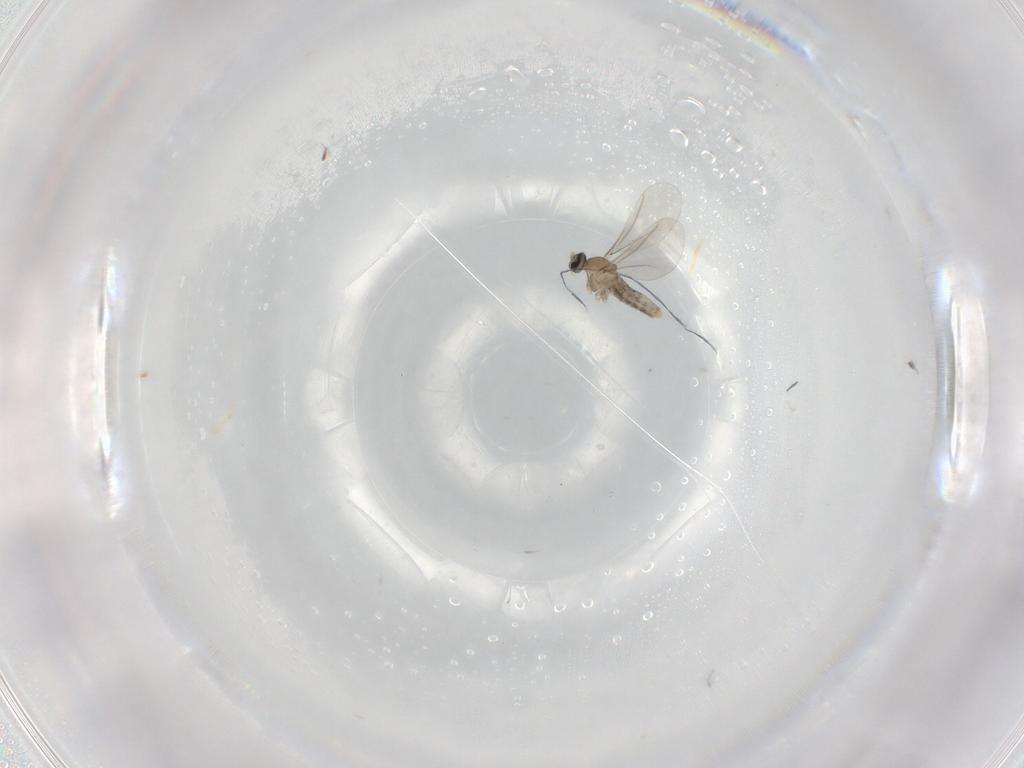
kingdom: Animalia
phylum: Arthropoda
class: Insecta
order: Diptera
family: Cecidomyiidae
